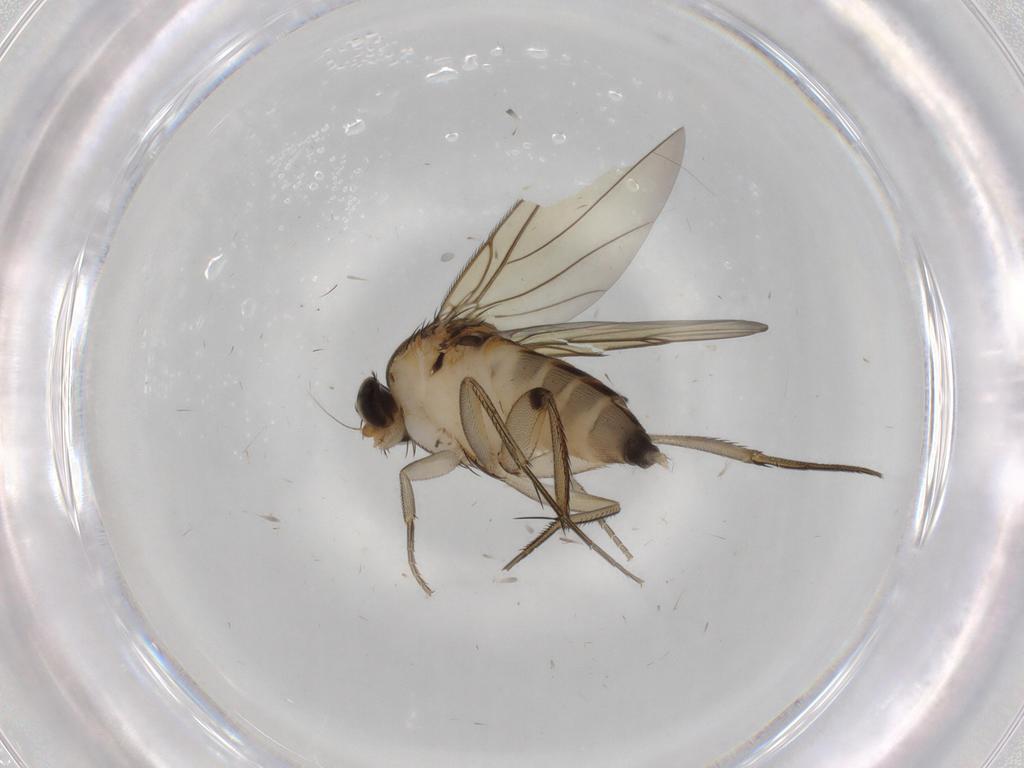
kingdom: Animalia
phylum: Arthropoda
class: Insecta
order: Diptera
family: Phoridae
